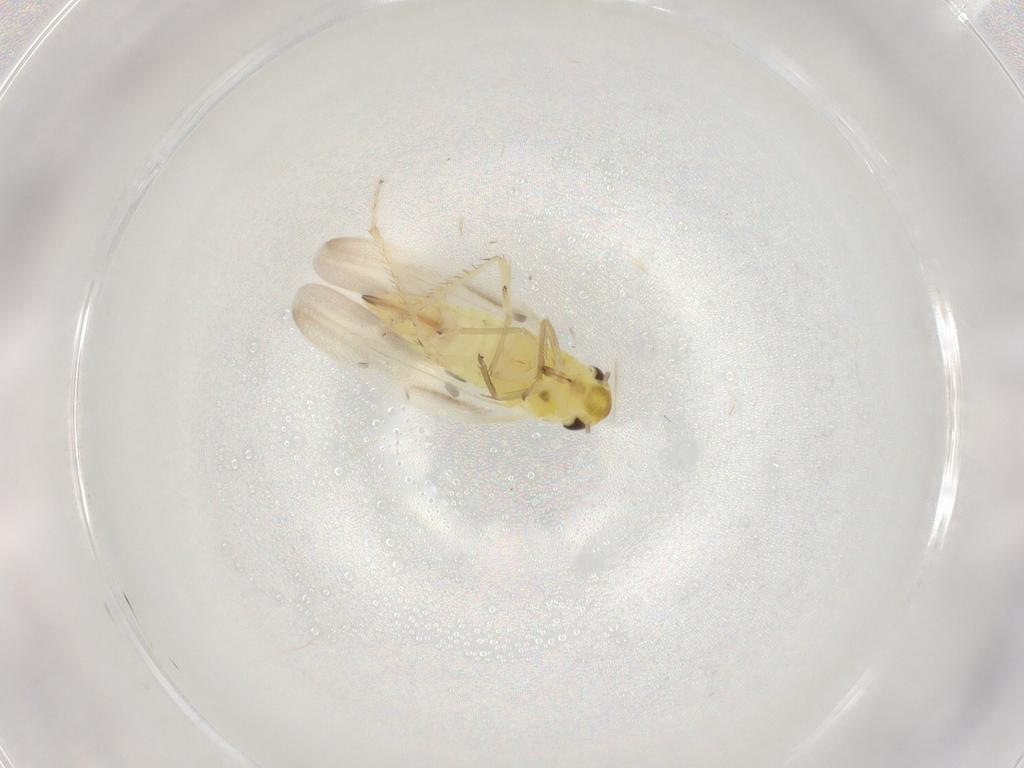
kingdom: Animalia
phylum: Arthropoda
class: Insecta
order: Hemiptera
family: Cicadellidae
